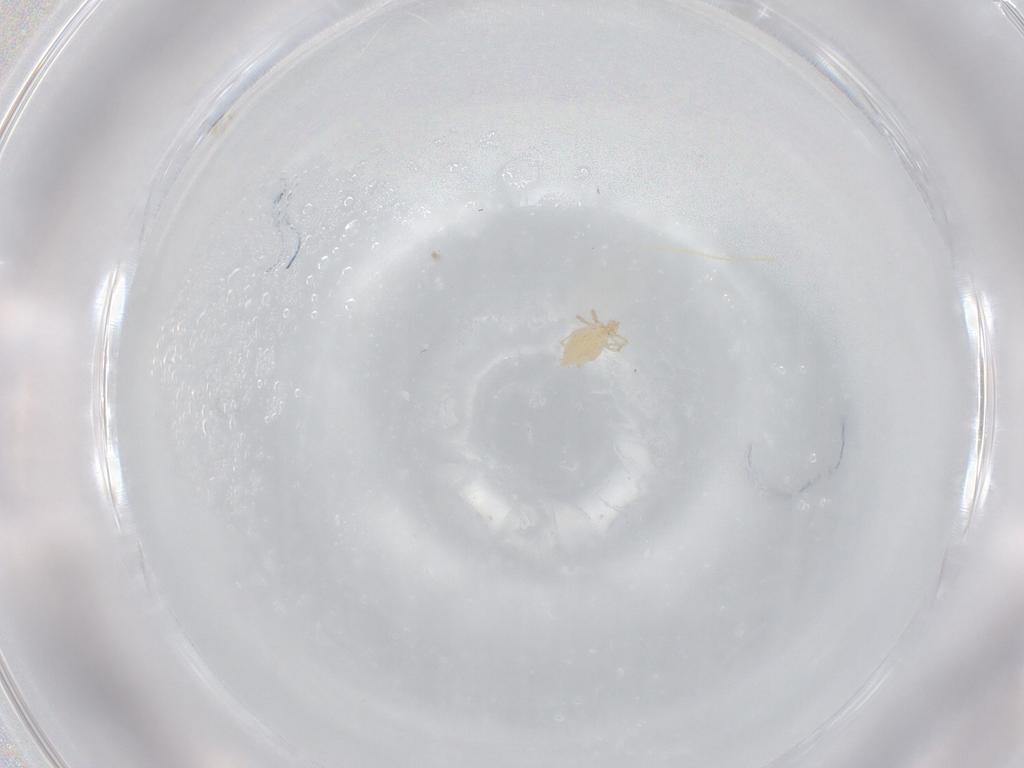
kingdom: Animalia
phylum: Arthropoda
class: Arachnida
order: Trombidiformes
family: Erythraeidae
